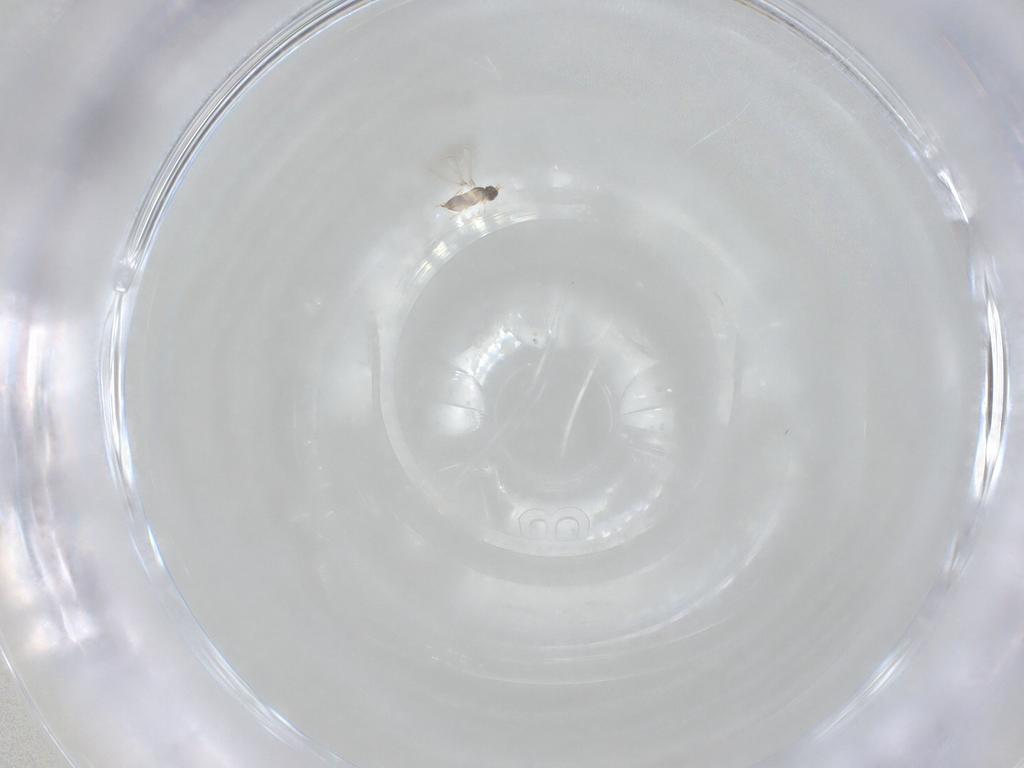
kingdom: Animalia
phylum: Arthropoda
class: Insecta
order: Hymenoptera
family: Mymaridae
